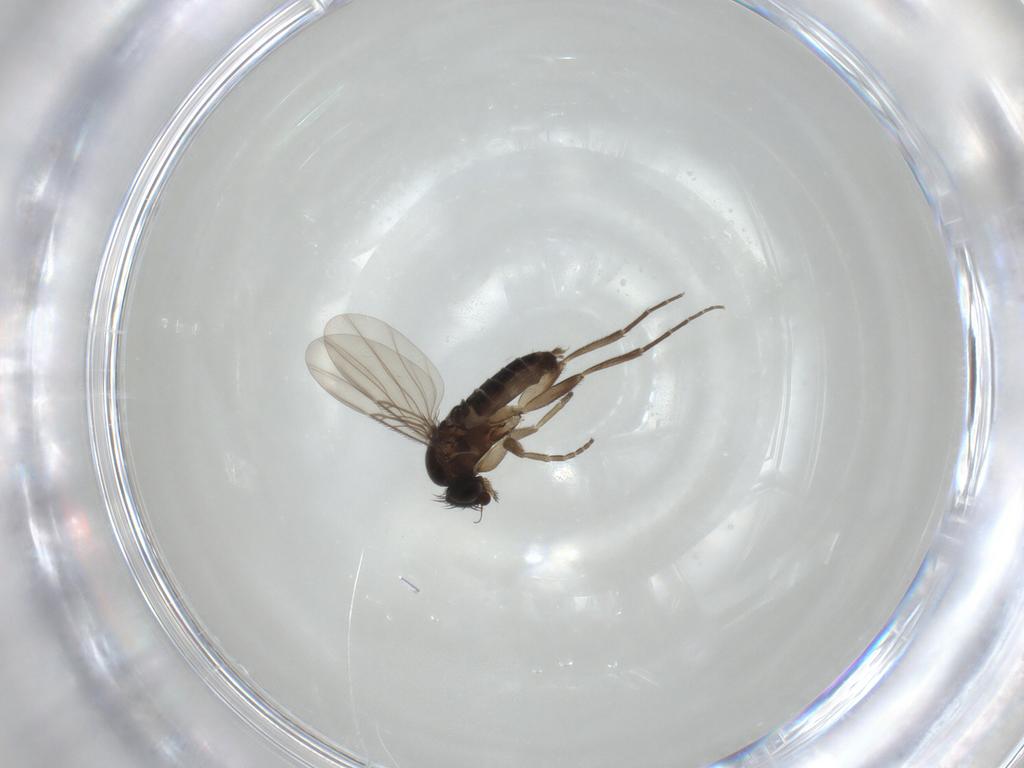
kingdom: Animalia
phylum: Arthropoda
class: Insecta
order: Diptera
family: Phoridae
